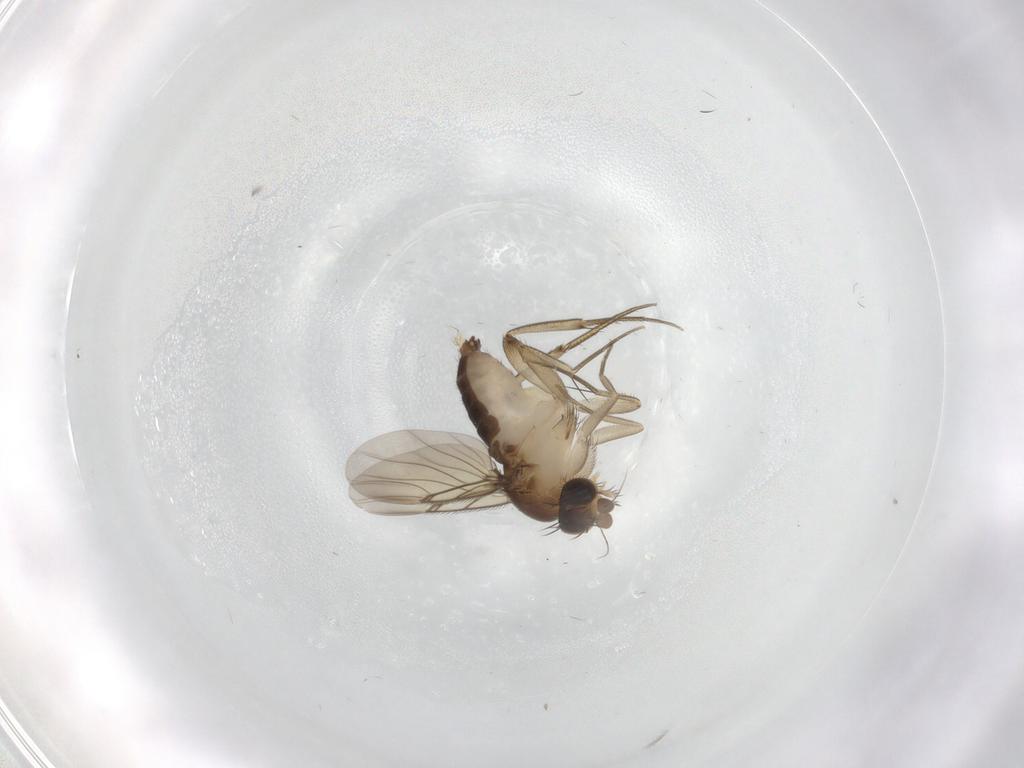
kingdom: Animalia
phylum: Arthropoda
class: Insecta
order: Diptera
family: Phoridae
